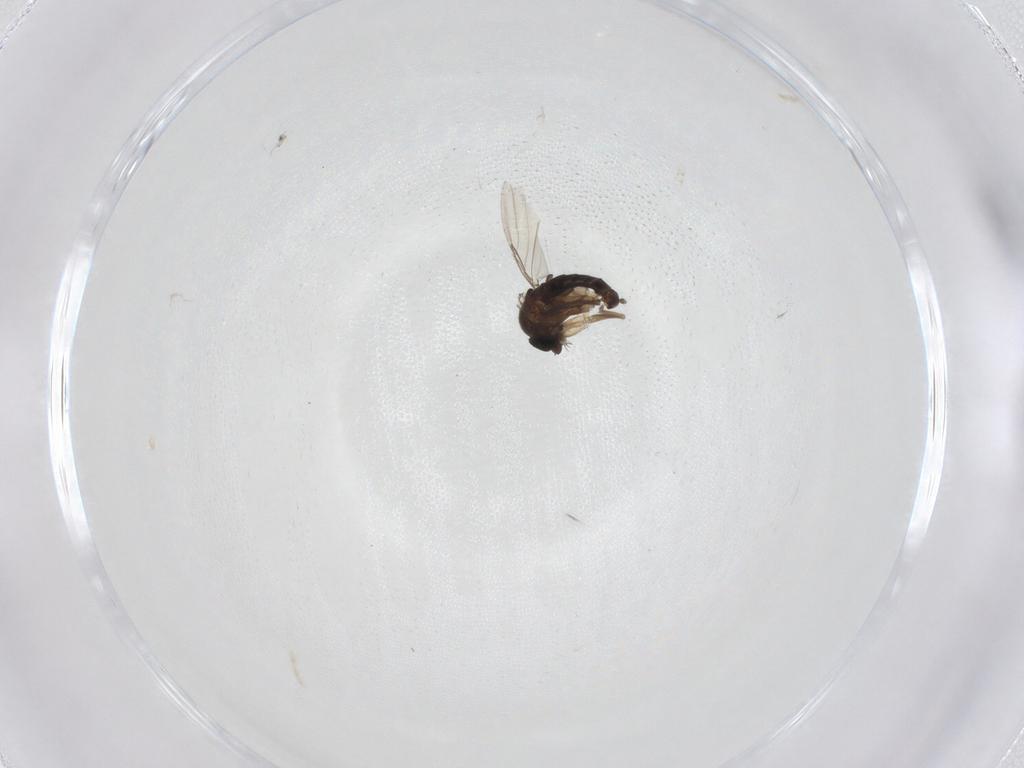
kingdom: Animalia
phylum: Arthropoda
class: Insecta
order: Diptera
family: Phoridae
